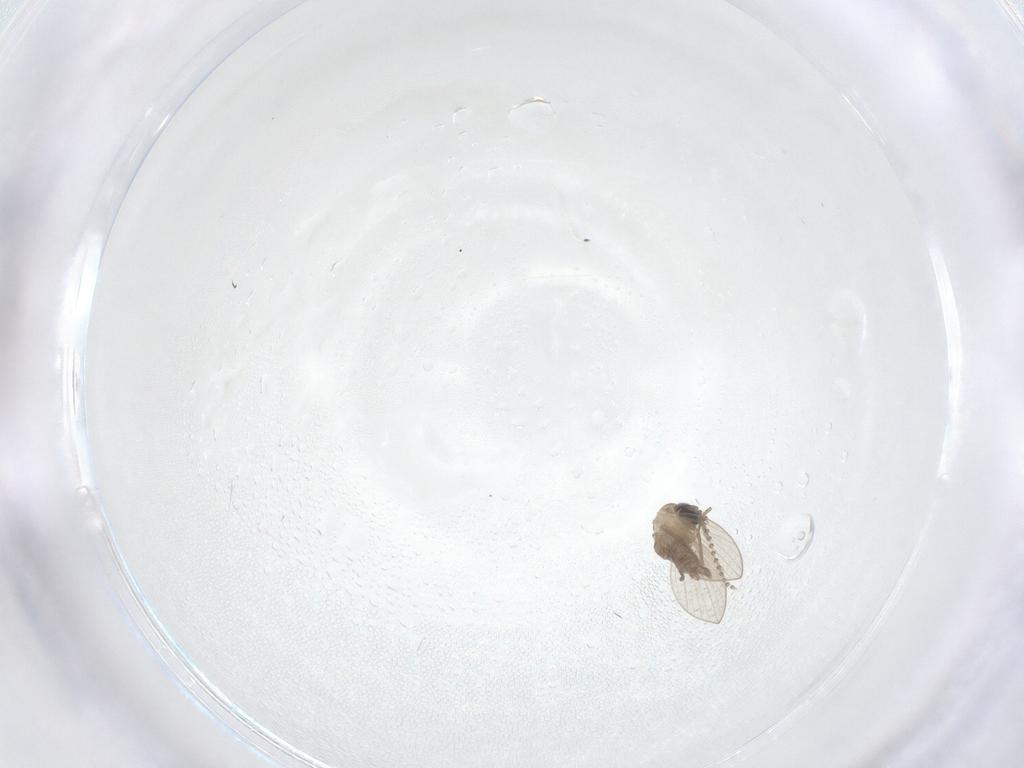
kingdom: Animalia
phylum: Arthropoda
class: Insecta
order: Diptera
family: Psychodidae
